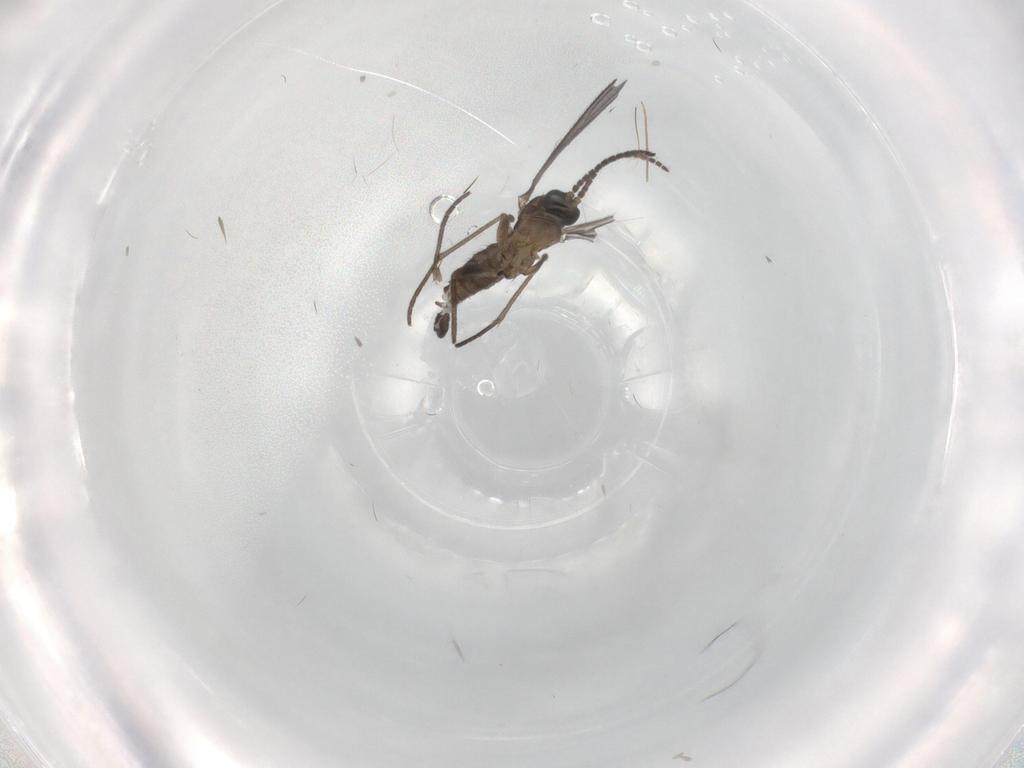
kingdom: Animalia
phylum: Arthropoda
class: Insecta
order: Diptera
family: Sciaridae
